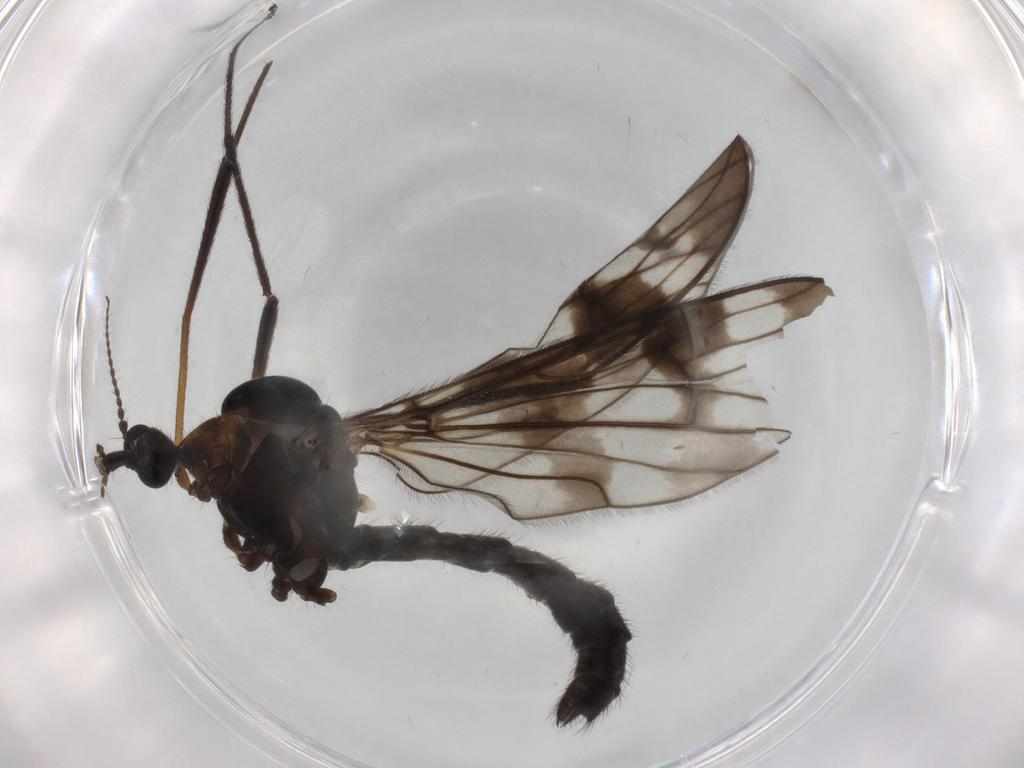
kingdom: Animalia
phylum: Arthropoda
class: Insecta
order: Diptera
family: Limoniidae
